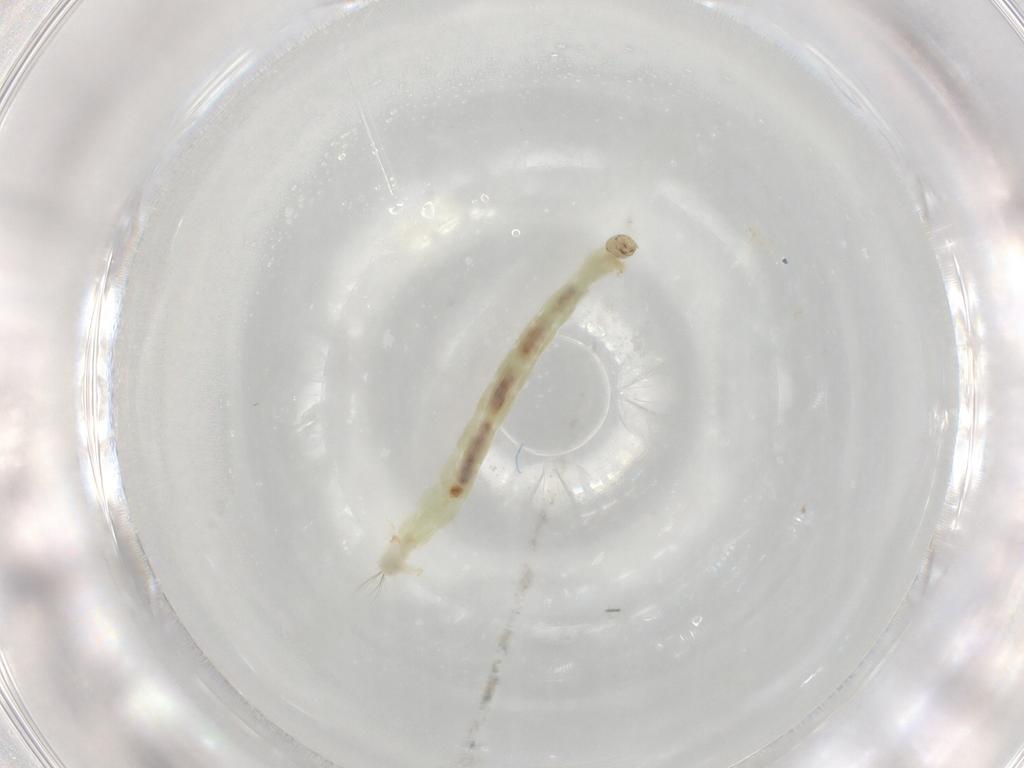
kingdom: Animalia
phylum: Arthropoda
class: Insecta
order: Diptera
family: Chironomidae
